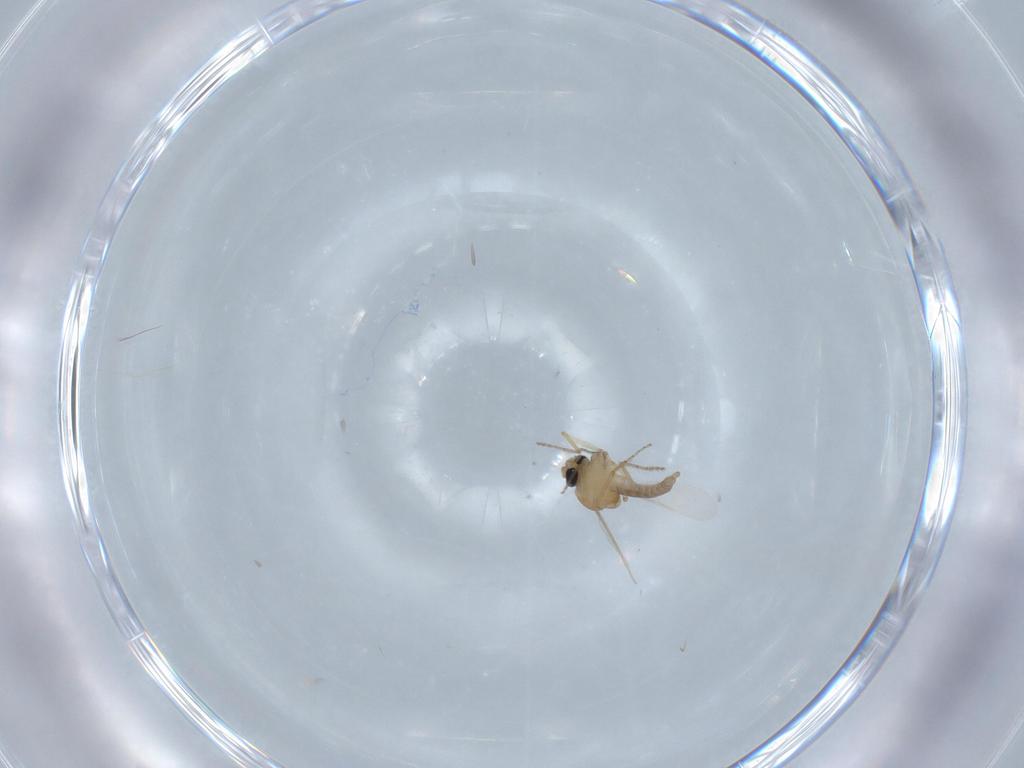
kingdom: Animalia
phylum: Arthropoda
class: Insecta
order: Diptera
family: Ceratopogonidae
